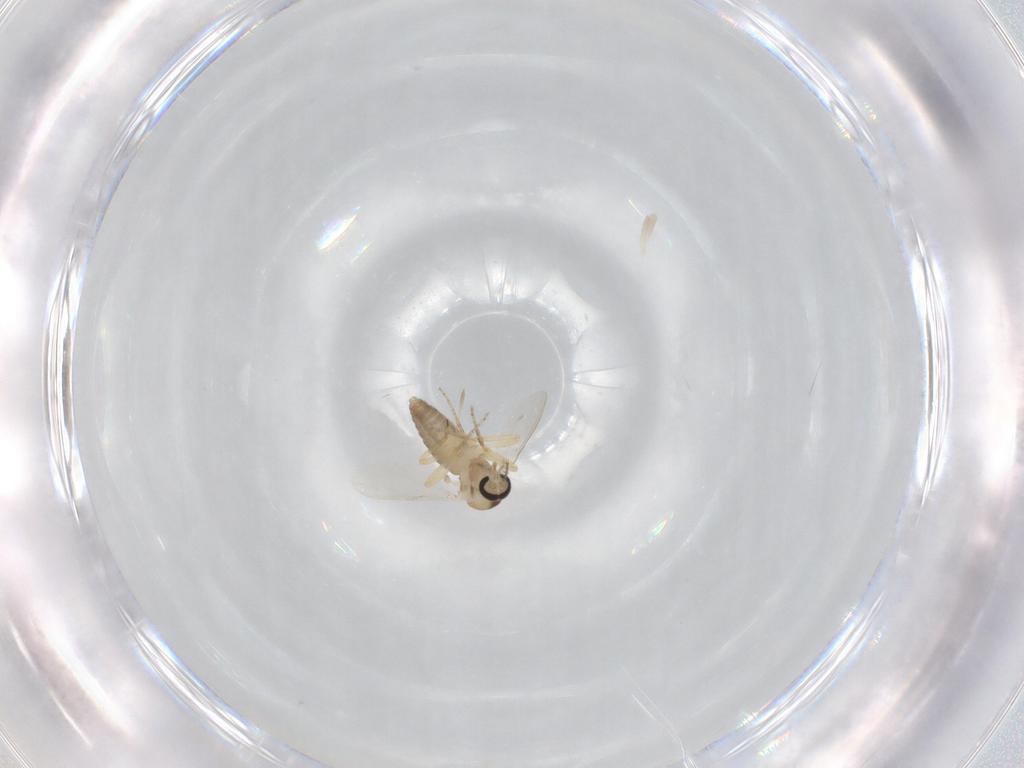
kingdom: Animalia
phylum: Arthropoda
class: Insecta
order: Diptera
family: Ceratopogonidae
